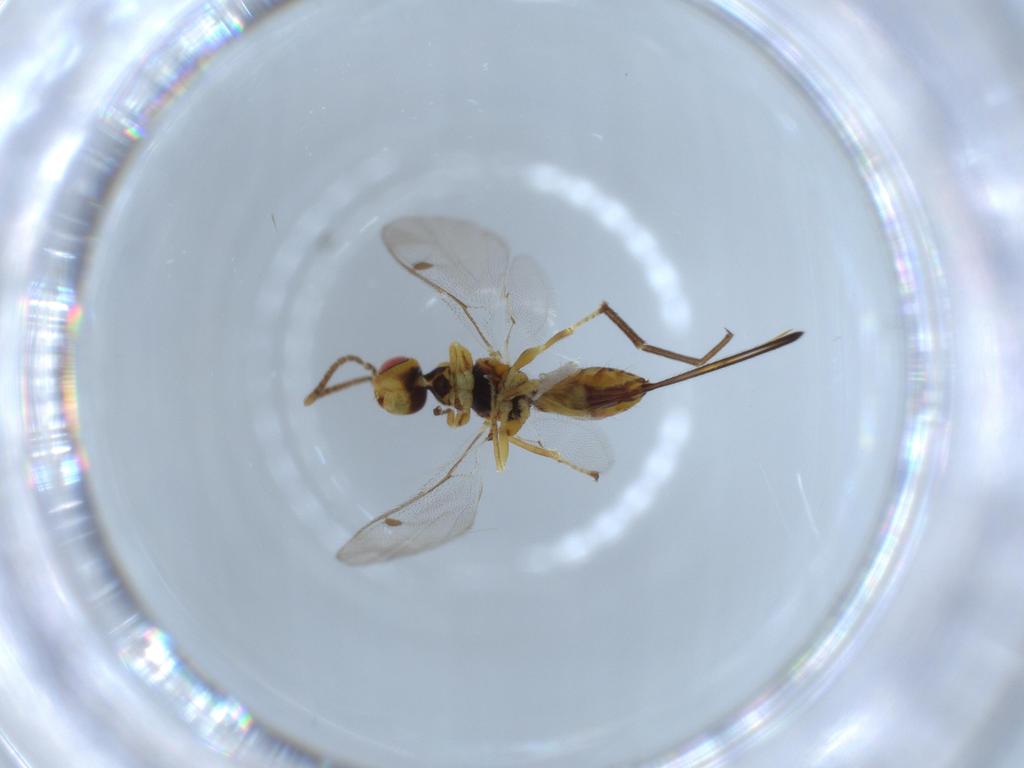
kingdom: Animalia
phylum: Arthropoda
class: Insecta
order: Hymenoptera
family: Megastigmidae
